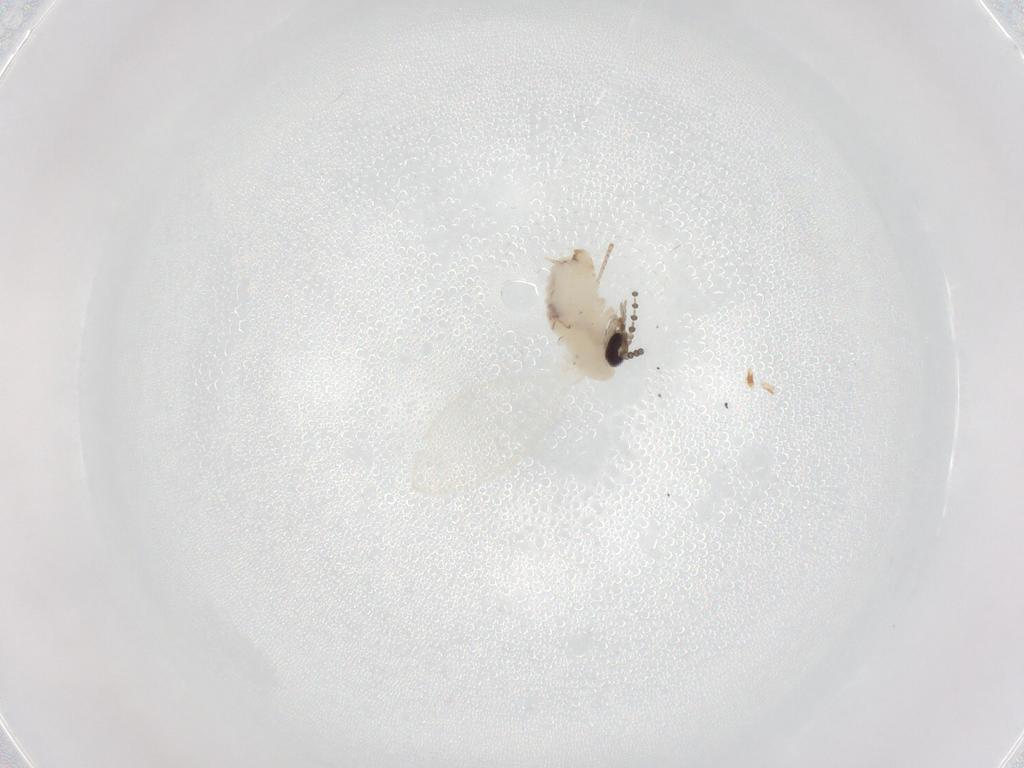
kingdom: Animalia
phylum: Arthropoda
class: Insecta
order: Diptera
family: Psychodidae
